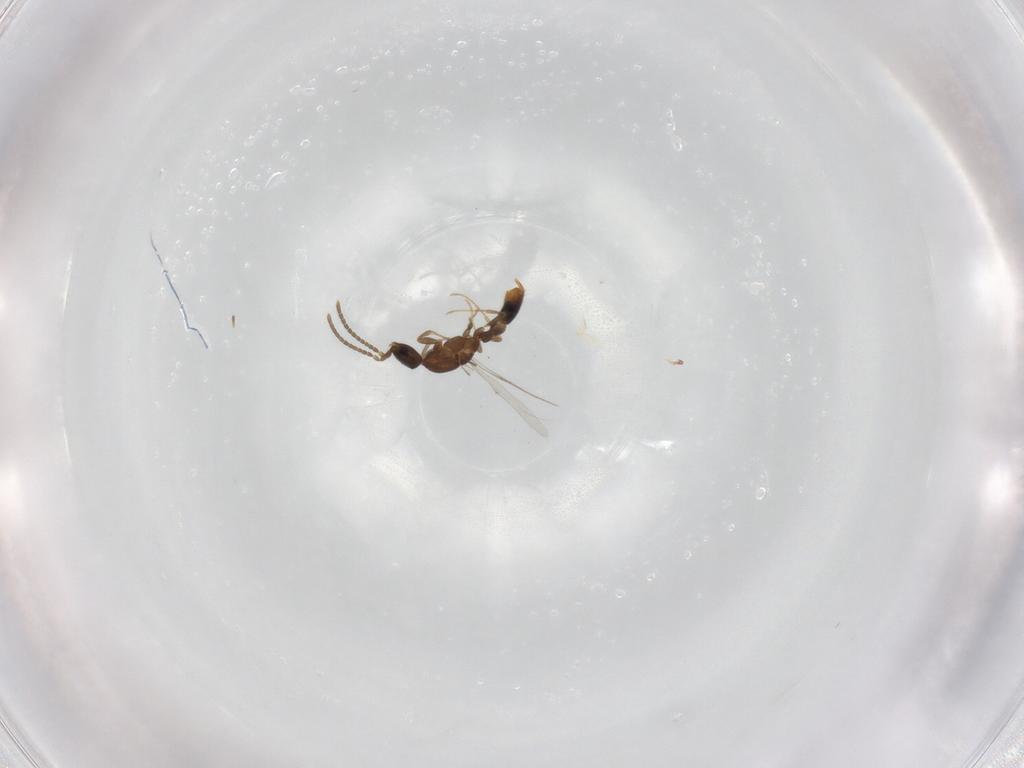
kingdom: Animalia
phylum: Arthropoda
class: Insecta
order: Hymenoptera
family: Formicidae
